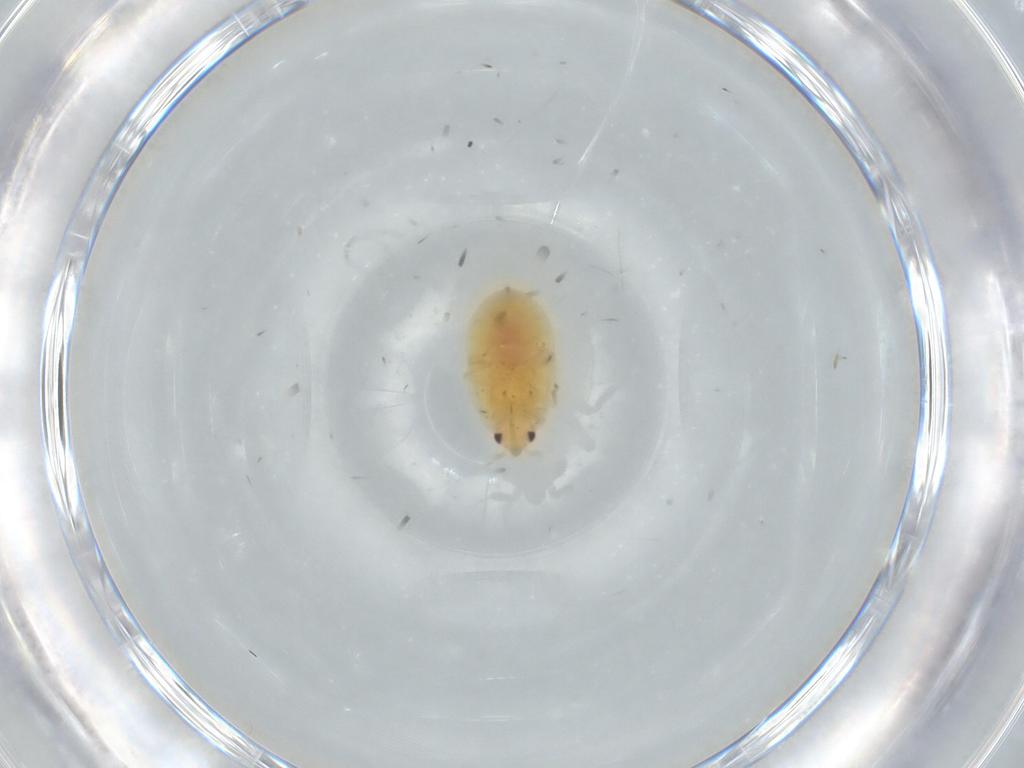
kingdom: Animalia
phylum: Arthropoda
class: Insecta
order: Hemiptera
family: Anthocoridae
